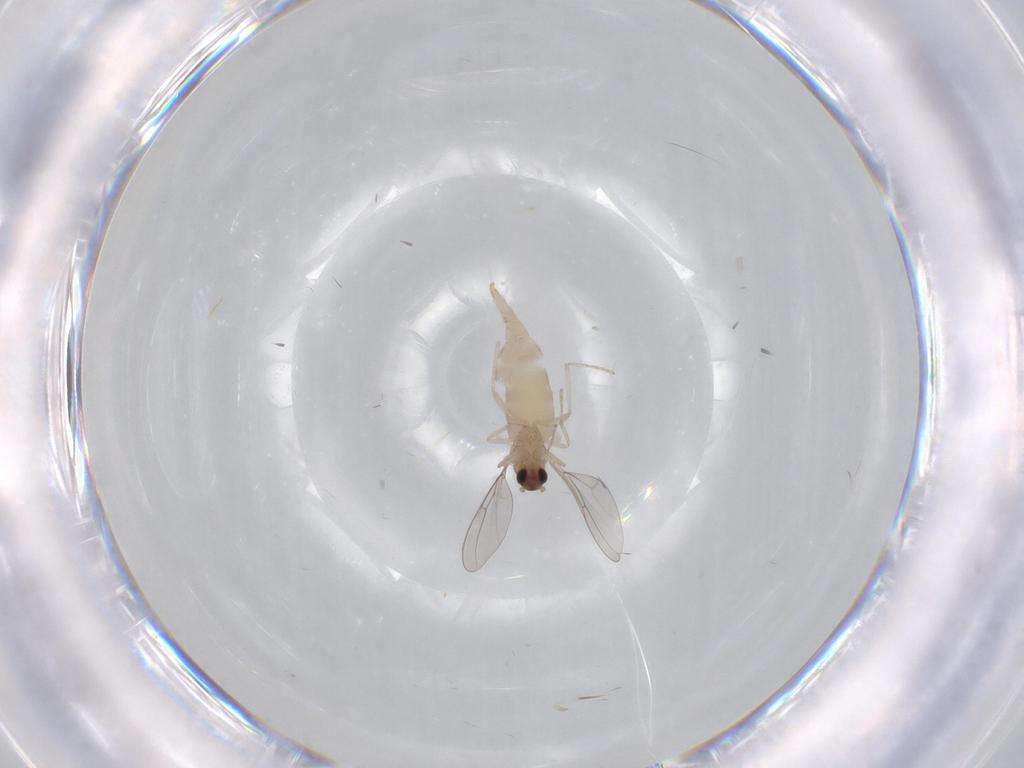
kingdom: Animalia
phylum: Arthropoda
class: Insecta
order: Diptera
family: Cecidomyiidae
